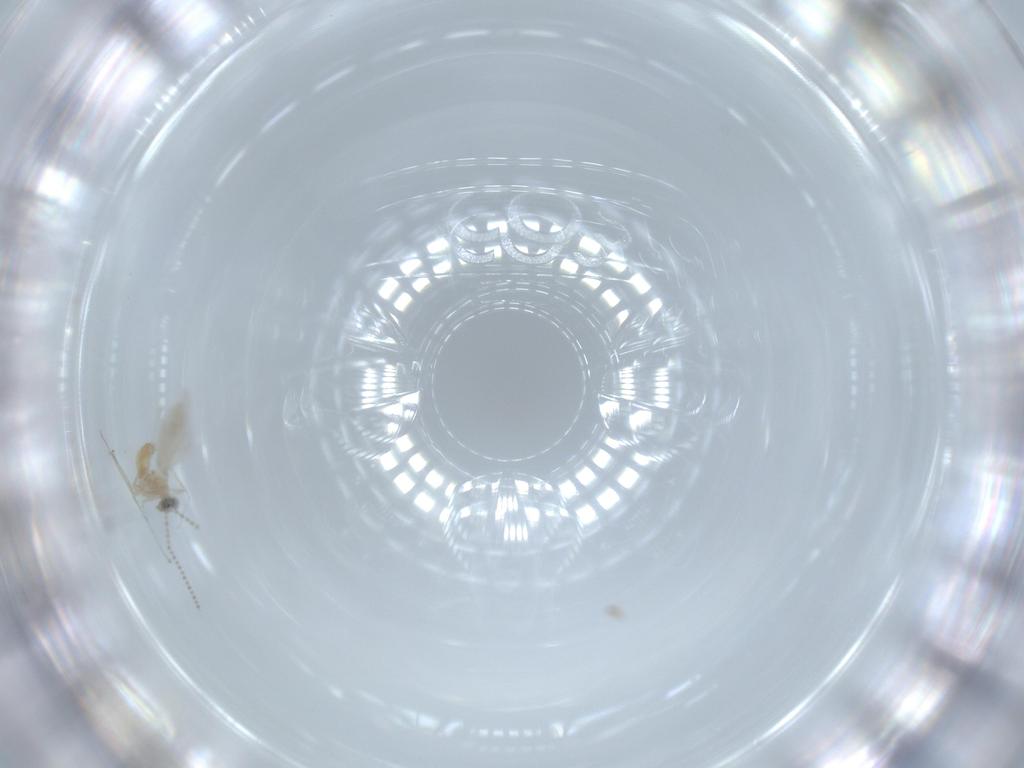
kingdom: Animalia
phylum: Arthropoda
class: Insecta
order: Diptera
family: Cecidomyiidae
